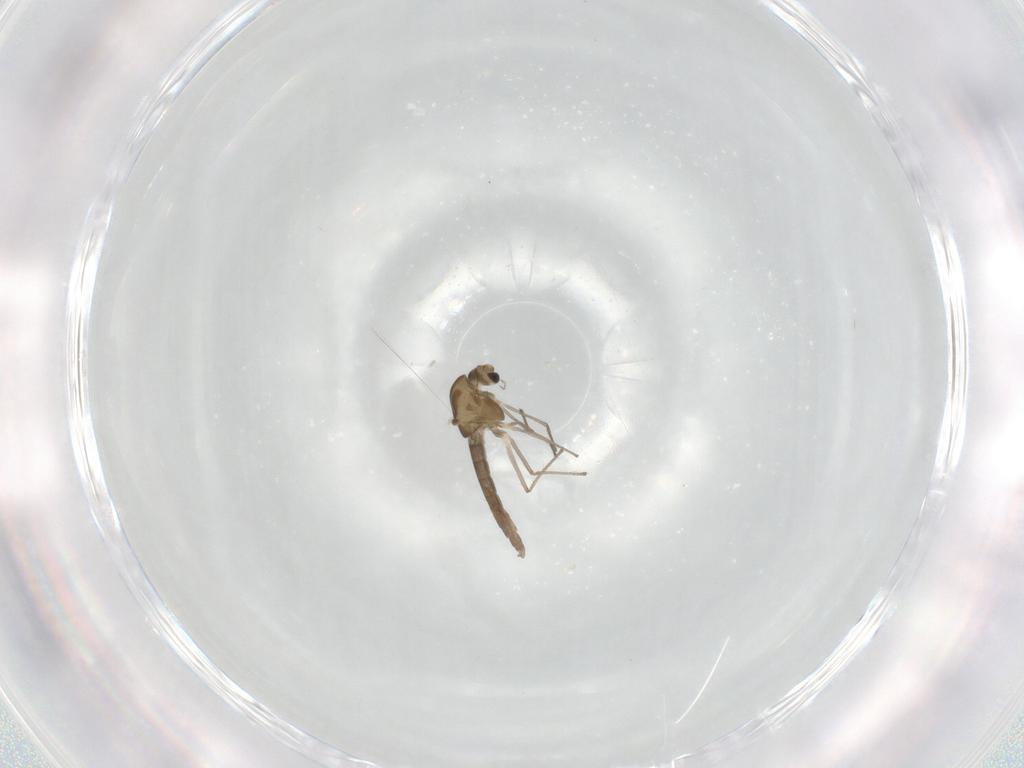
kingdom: Animalia
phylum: Arthropoda
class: Insecta
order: Diptera
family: Chironomidae
